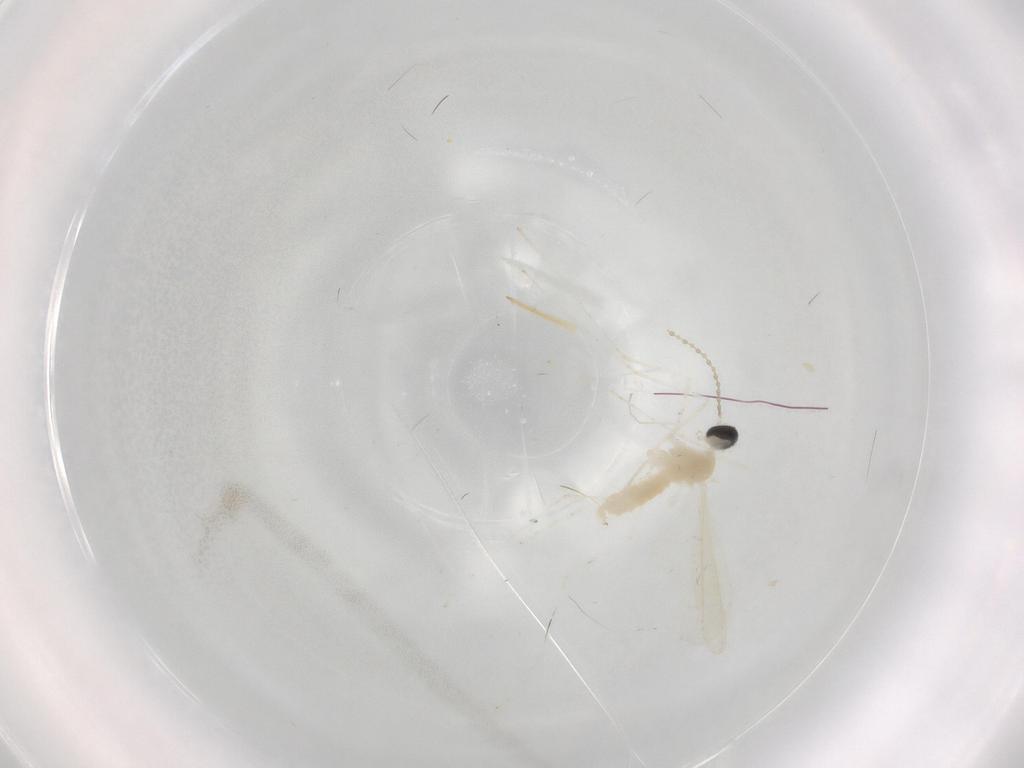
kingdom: Animalia
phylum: Arthropoda
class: Insecta
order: Diptera
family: Cecidomyiidae
